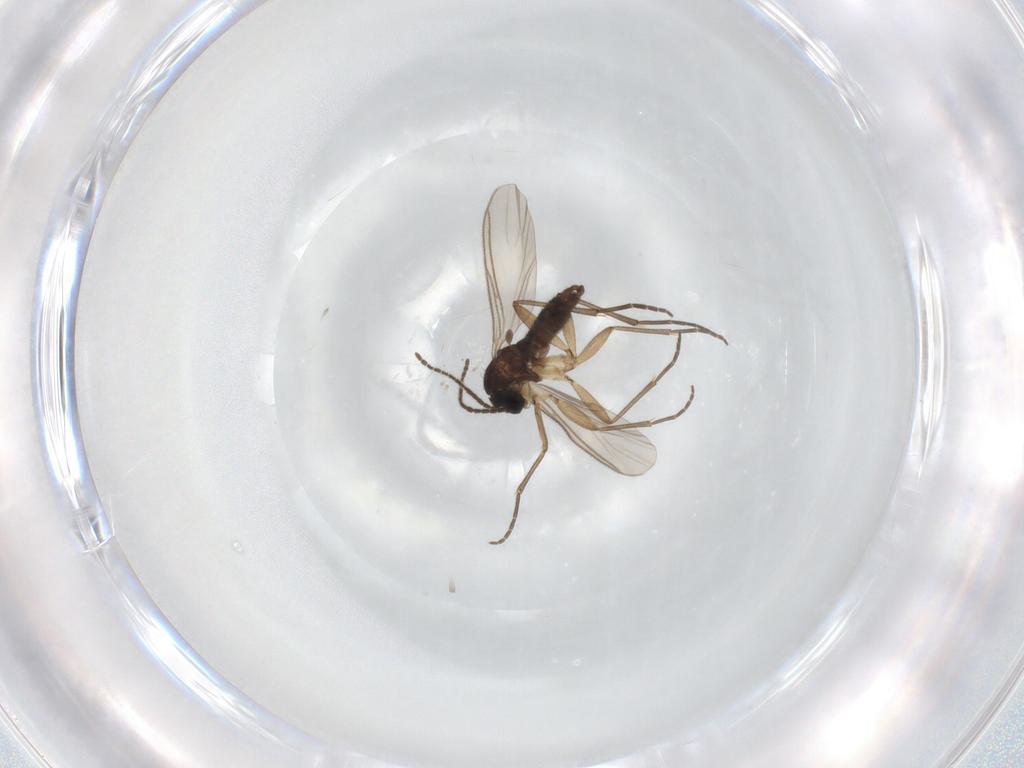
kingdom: Animalia
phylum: Arthropoda
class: Insecta
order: Diptera
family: Sciaridae
